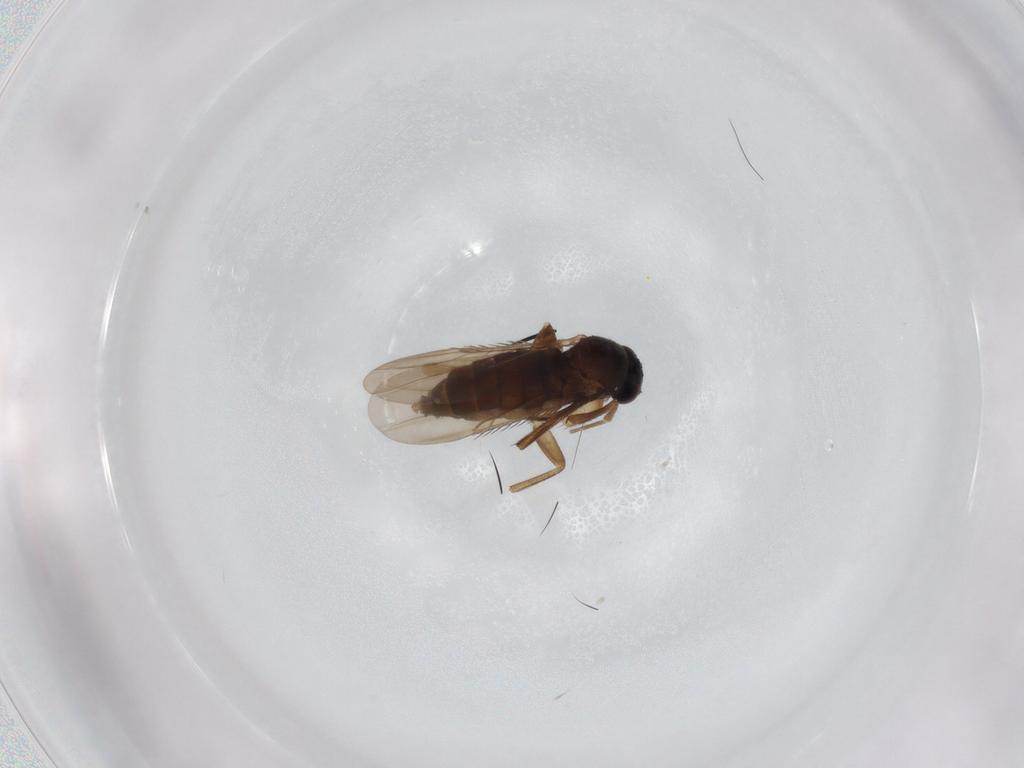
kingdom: Animalia
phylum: Arthropoda
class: Insecta
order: Diptera
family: Phoridae
